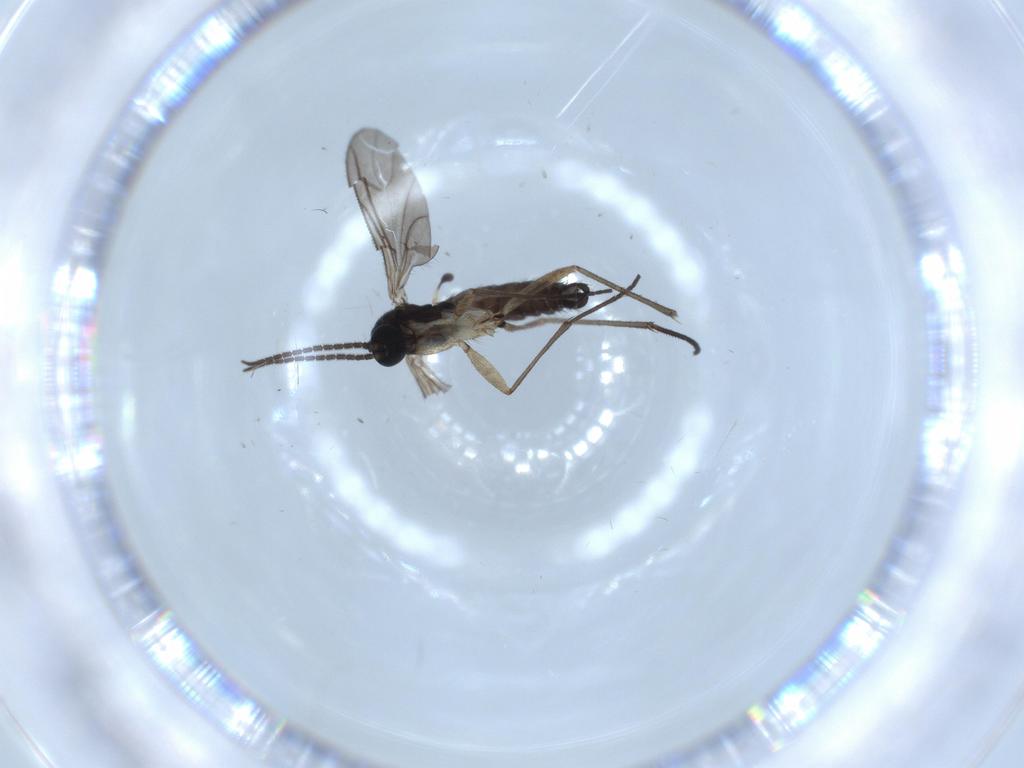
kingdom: Animalia
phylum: Arthropoda
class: Insecta
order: Diptera
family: Sciaridae
